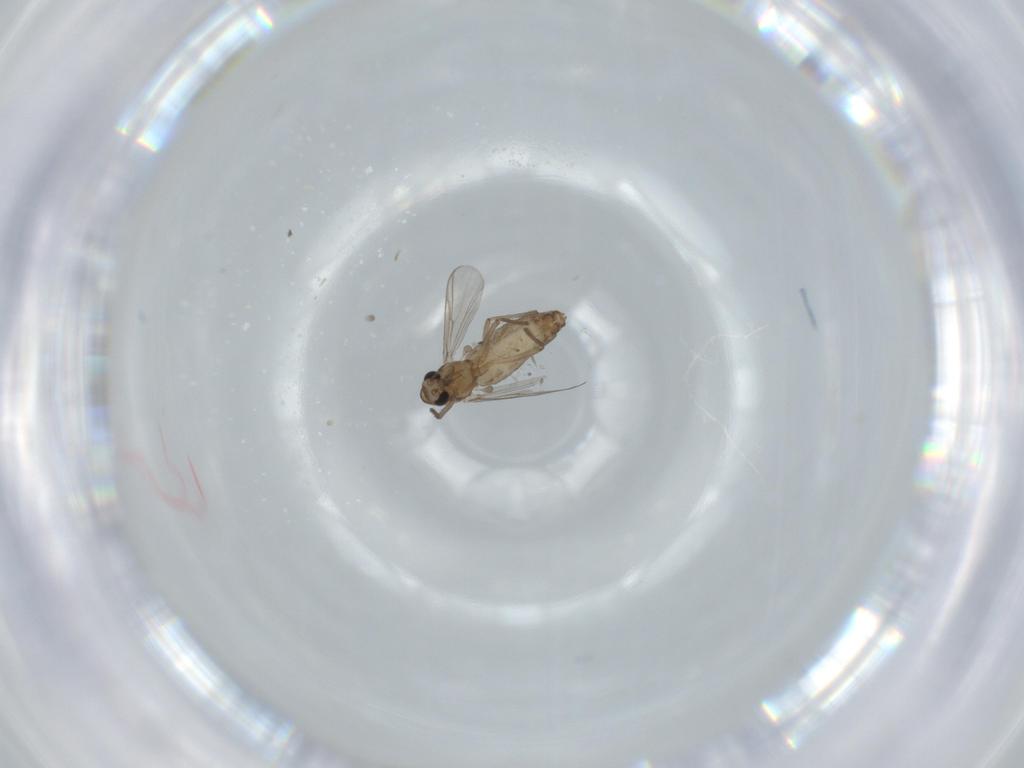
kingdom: Animalia
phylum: Arthropoda
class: Insecta
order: Diptera
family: Chironomidae
